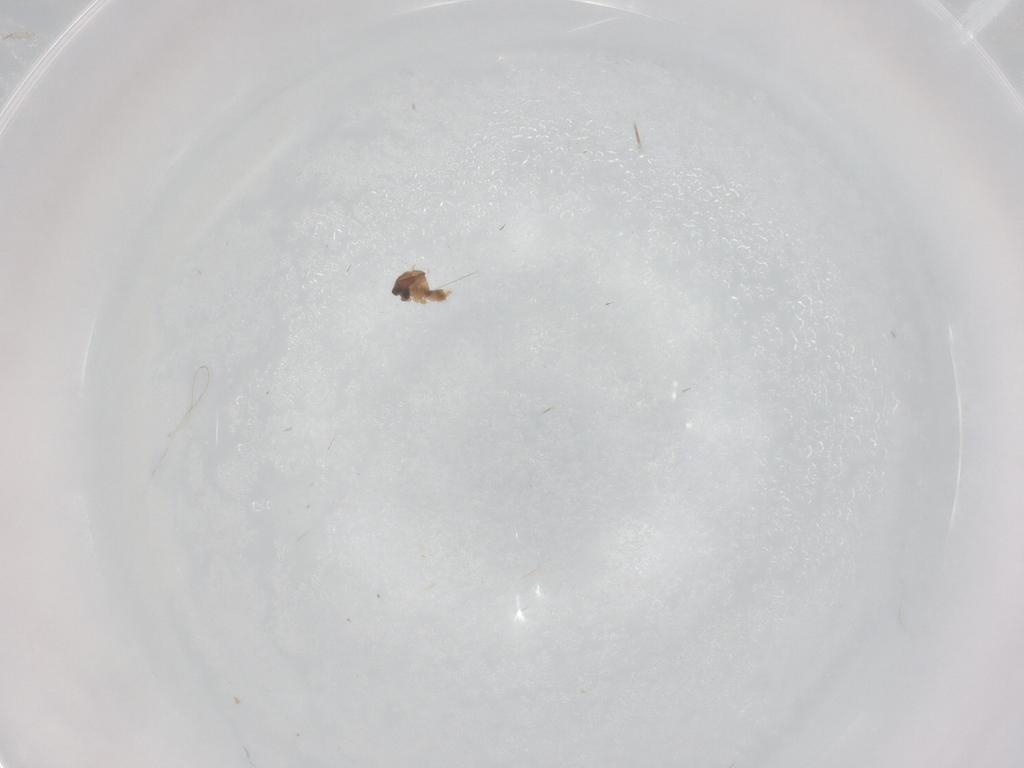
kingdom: Animalia
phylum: Arthropoda
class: Insecta
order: Diptera
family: Cecidomyiidae
